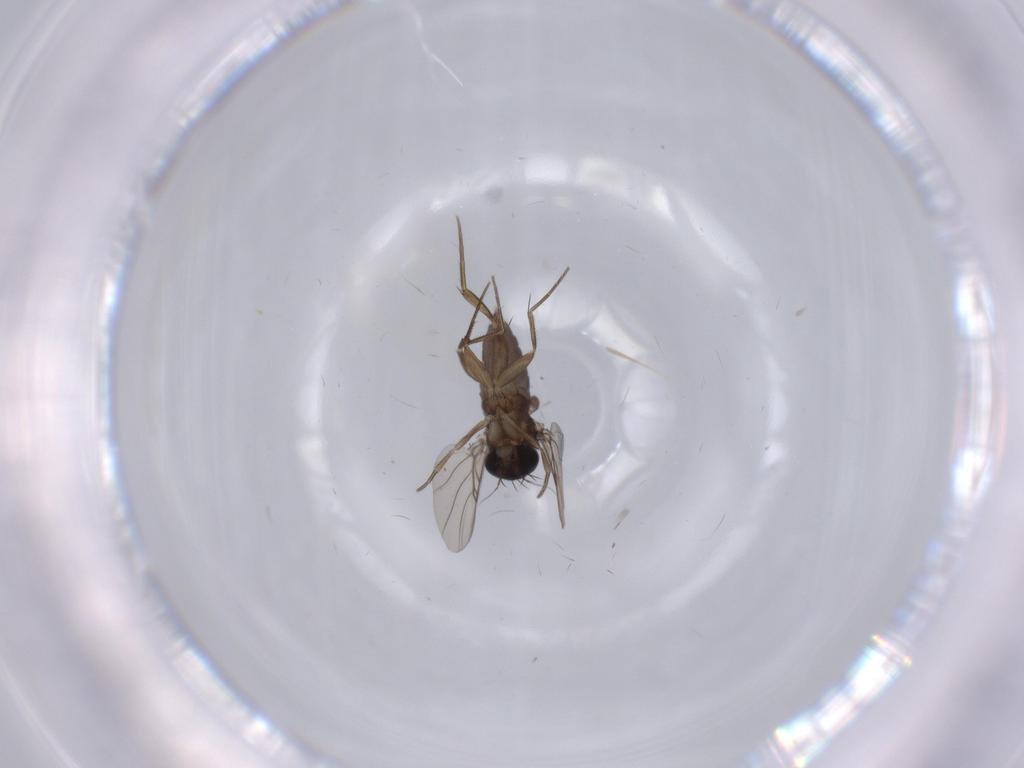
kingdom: Animalia
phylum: Arthropoda
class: Insecta
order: Diptera
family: Phoridae
